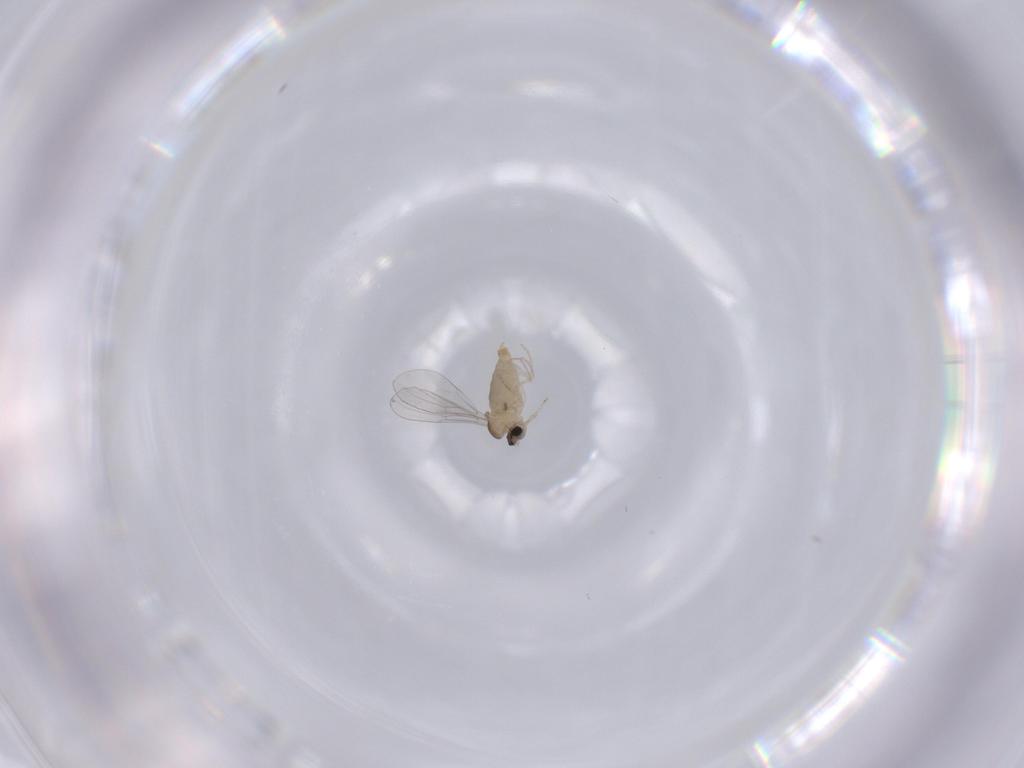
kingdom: Animalia
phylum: Arthropoda
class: Insecta
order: Diptera
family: Cecidomyiidae
